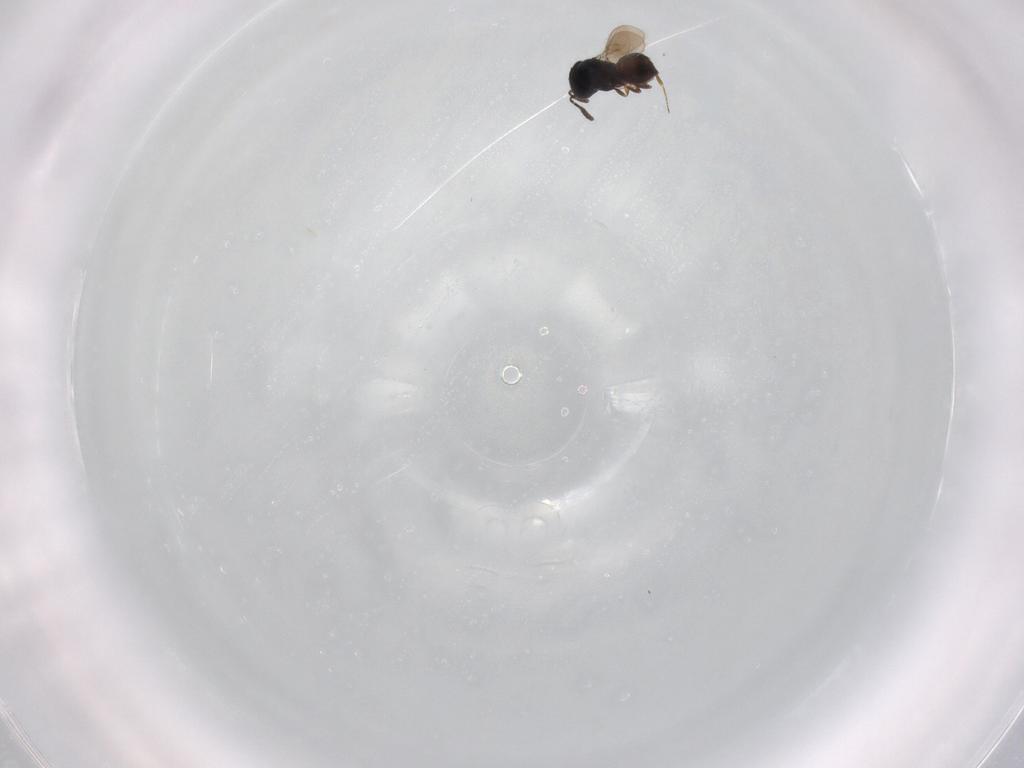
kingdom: Animalia
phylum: Arthropoda
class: Insecta
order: Hymenoptera
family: Scelionidae
